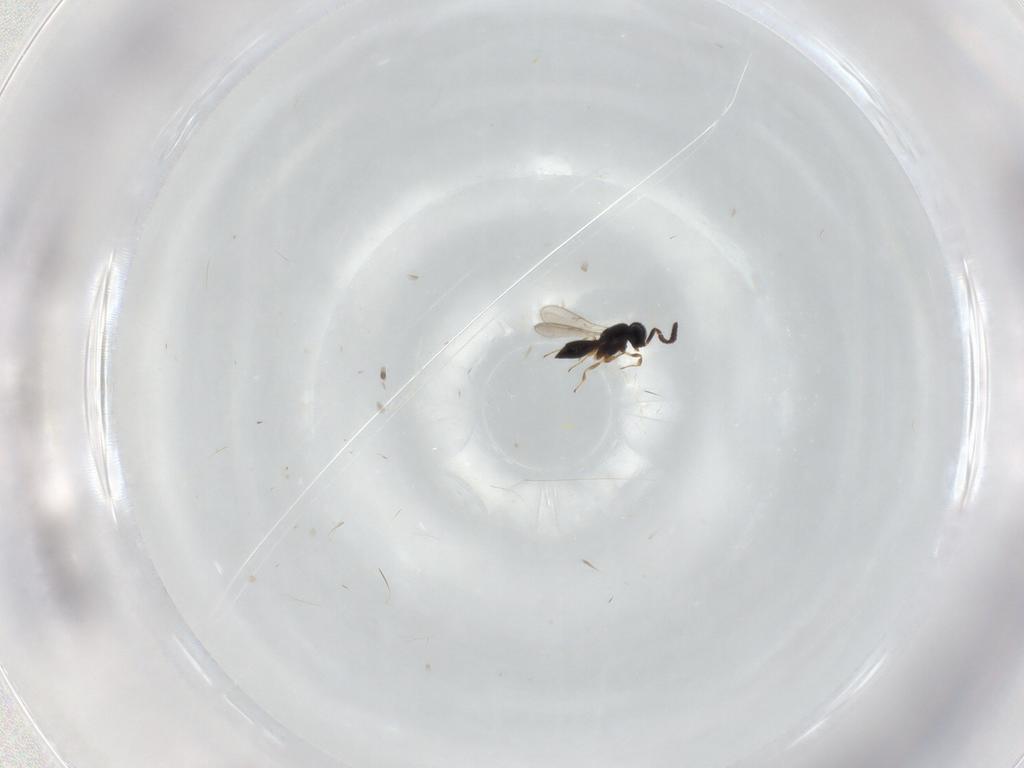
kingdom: Animalia
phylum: Arthropoda
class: Insecta
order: Hymenoptera
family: Scelionidae
